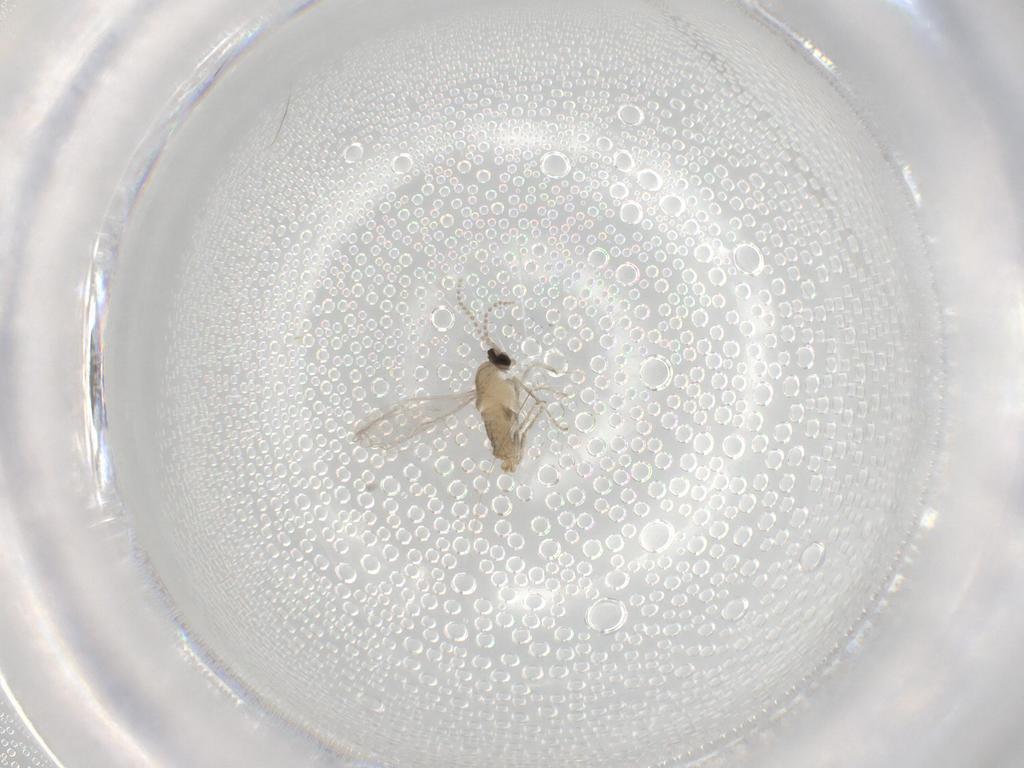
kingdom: Animalia
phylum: Arthropoda
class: Insecta
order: Diptera
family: Cecidomyiidae
